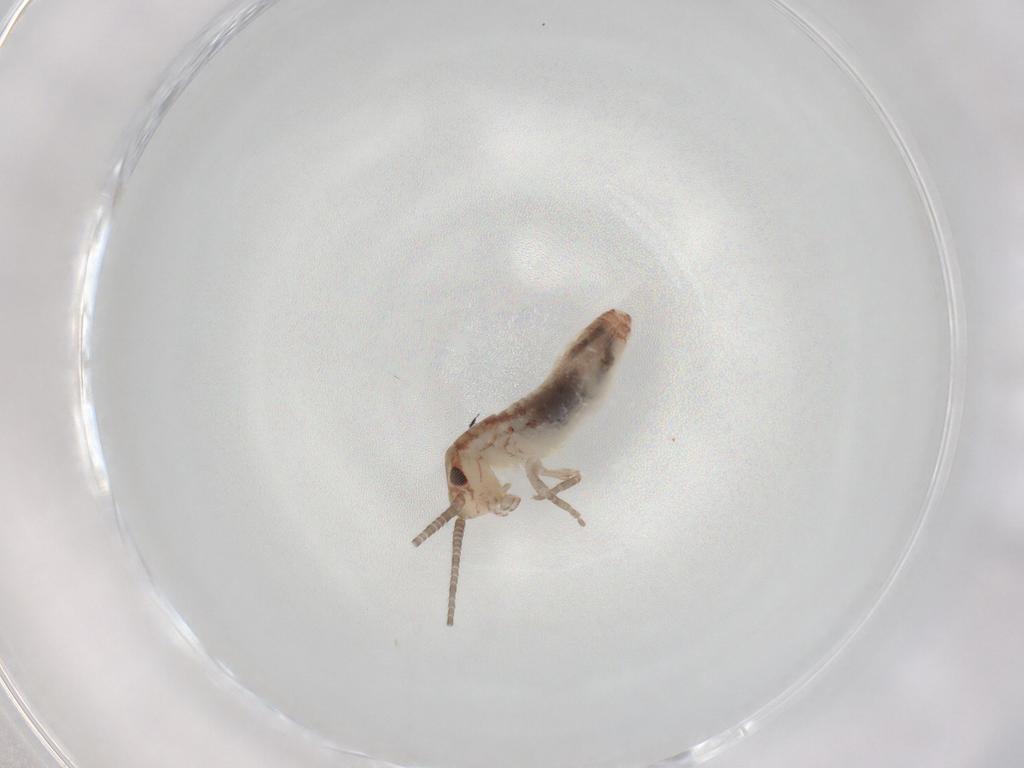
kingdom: Animalia
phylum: Arthropoda
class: Insecta
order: Orthoptera
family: Mogoplistidae
